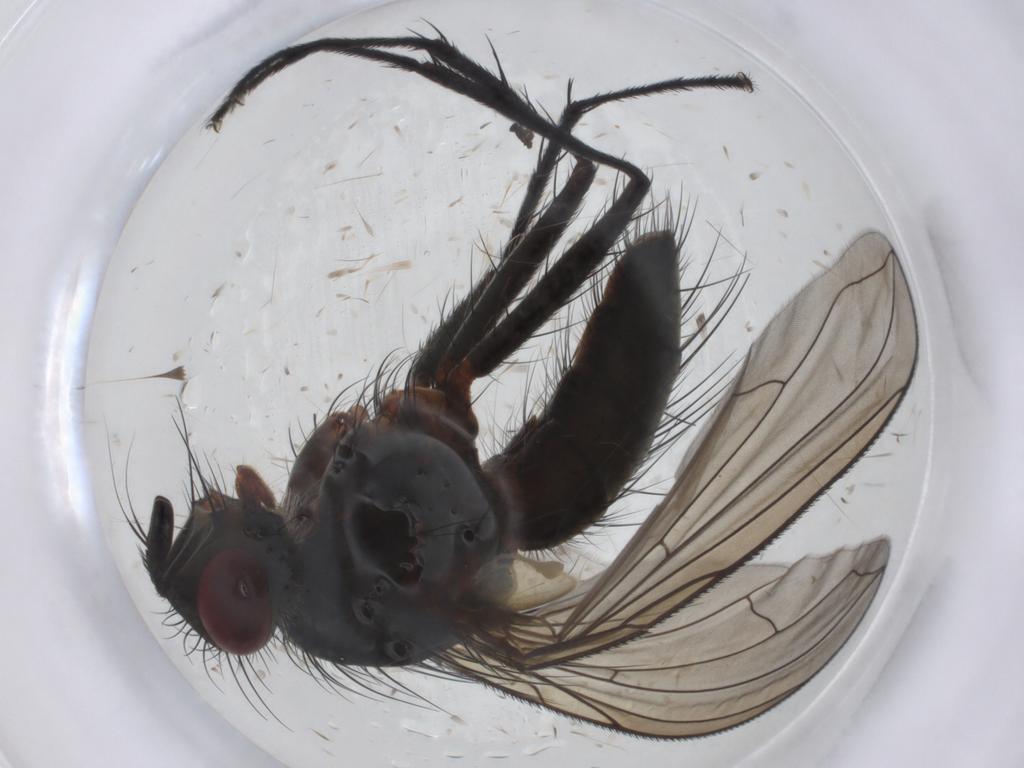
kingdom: Animalia
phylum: Arthropoda
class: Insecta
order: Diptera
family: Tachinidae
